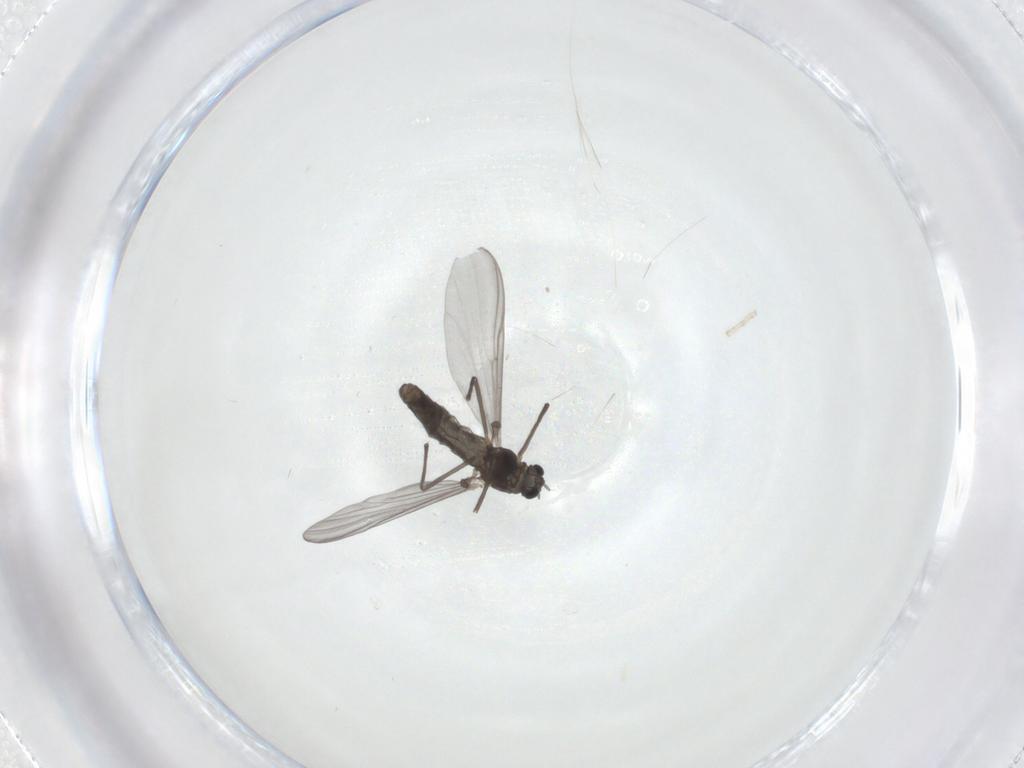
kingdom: Animalia
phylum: Arthropoda
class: Insecta
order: Diptera
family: Chironomidae
